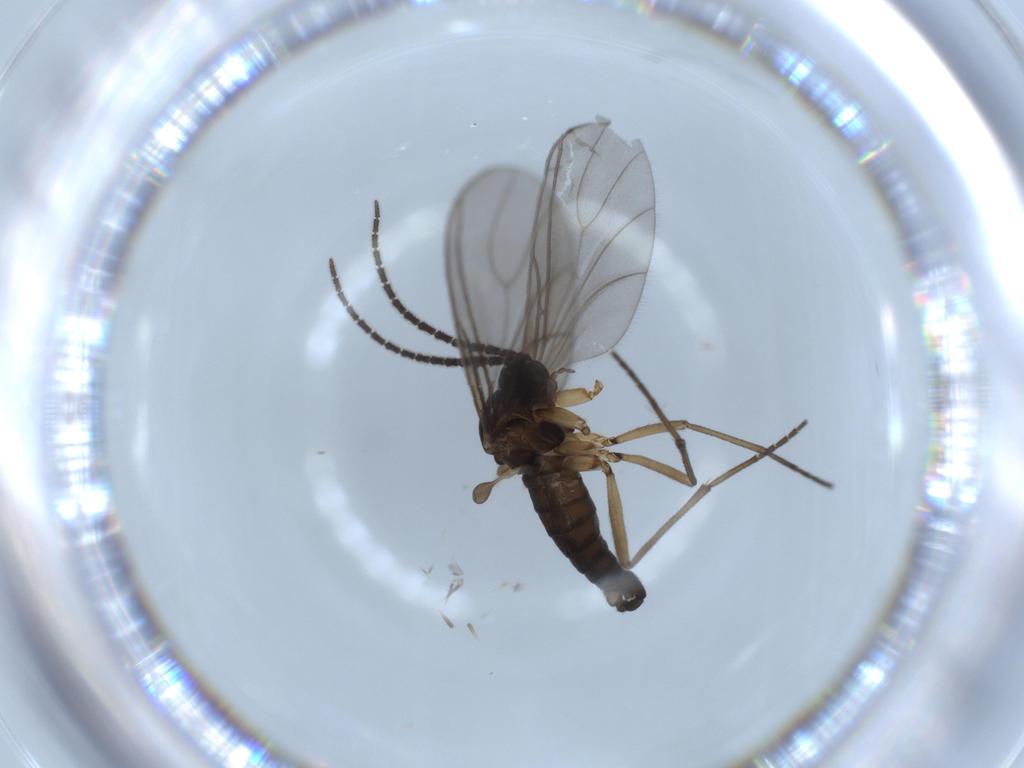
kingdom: Animalia
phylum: Arthropoda
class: Insecta
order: Diptera
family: Sciaridae
